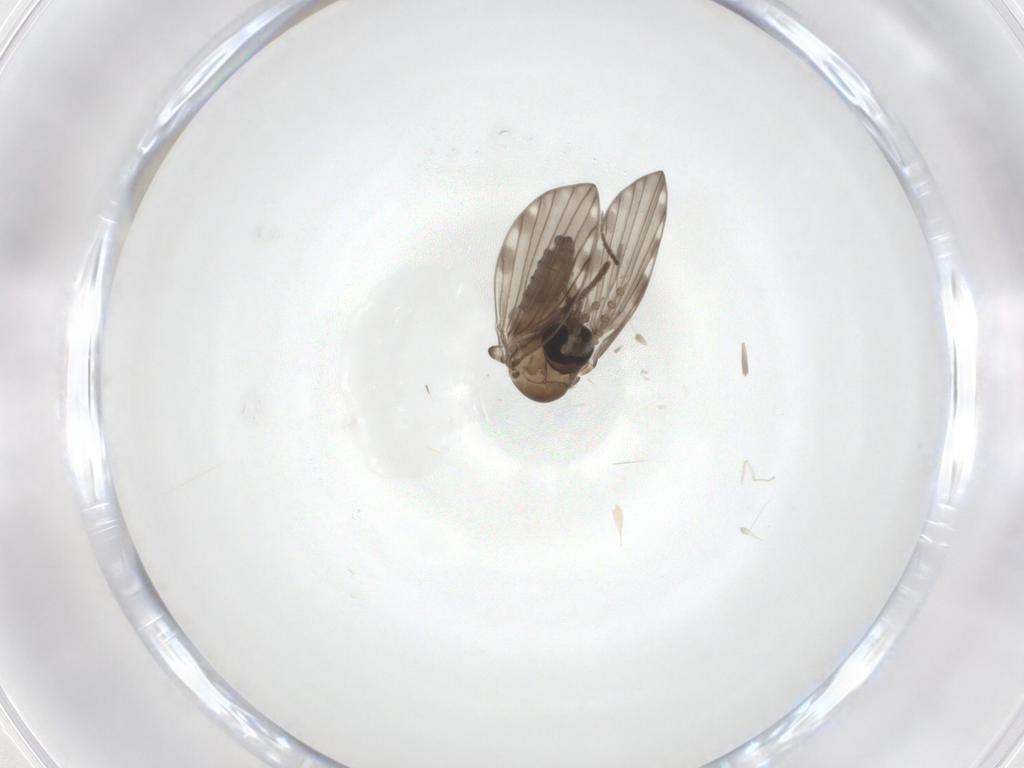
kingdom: Animalia
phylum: Arthropoda
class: Insecta
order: Diptera
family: Cecidomyiidae
